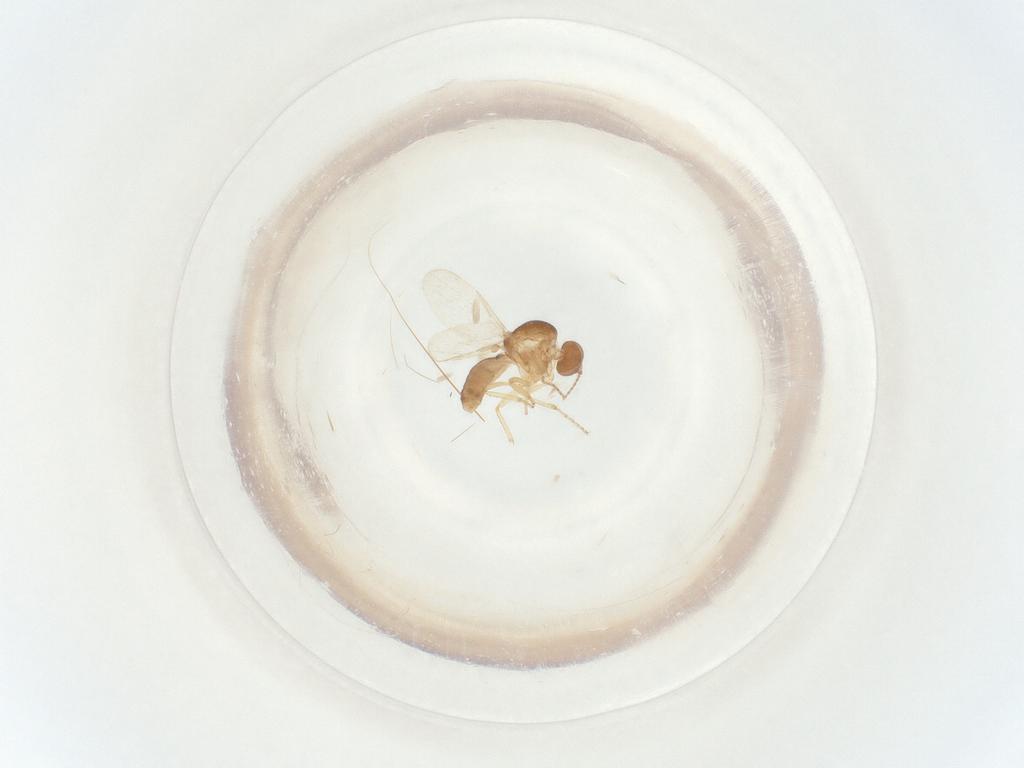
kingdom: Animalia
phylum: Arthropoda
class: Insecta
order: Diptera
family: Ceratopogonidae
